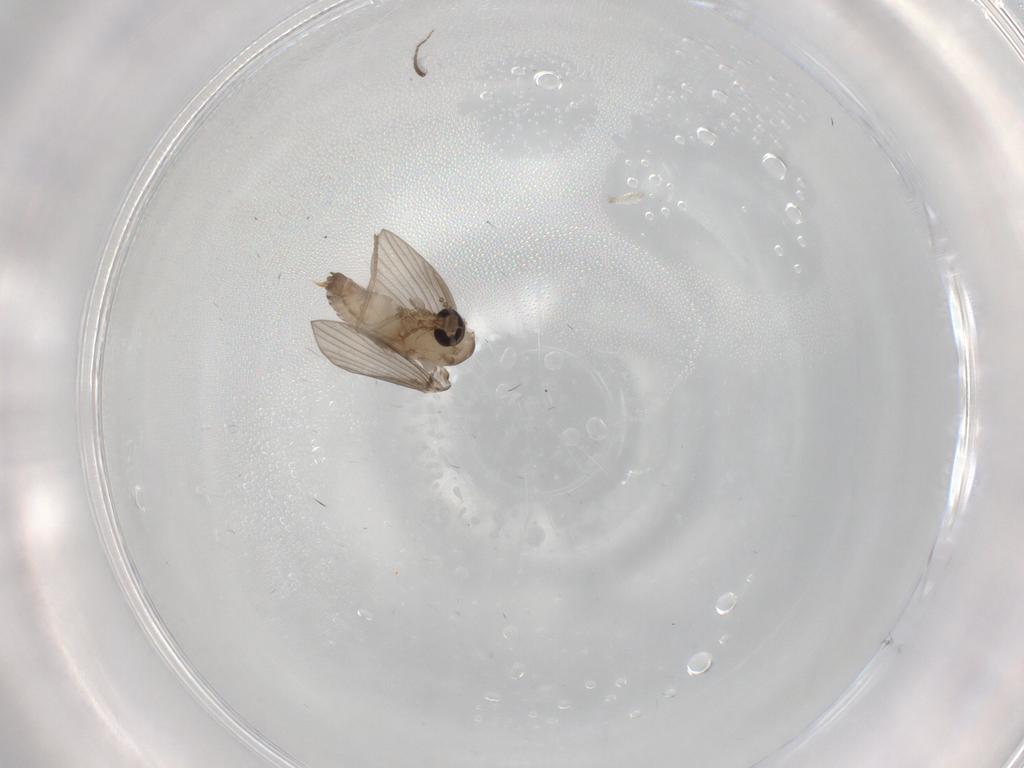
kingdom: Animalia
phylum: Arthropoda
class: Insecta
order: Diptera
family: Psychodidae
